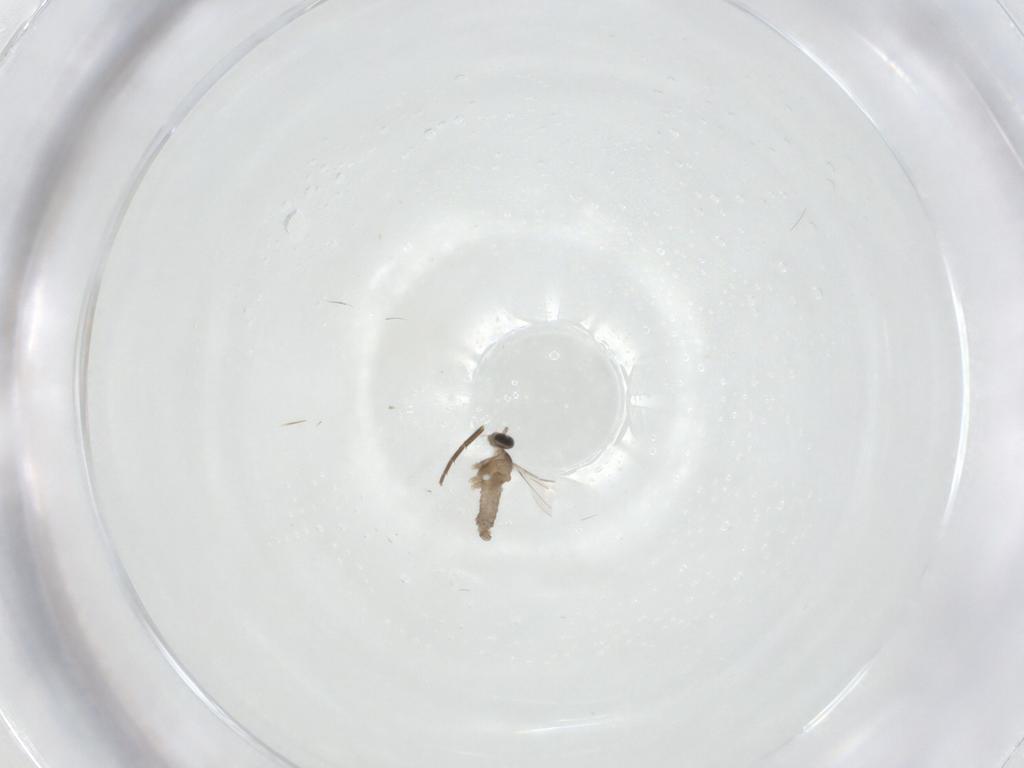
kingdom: Animalia
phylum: Arthropoda
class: Insecta
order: Diptera
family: Cecidomyiidae
